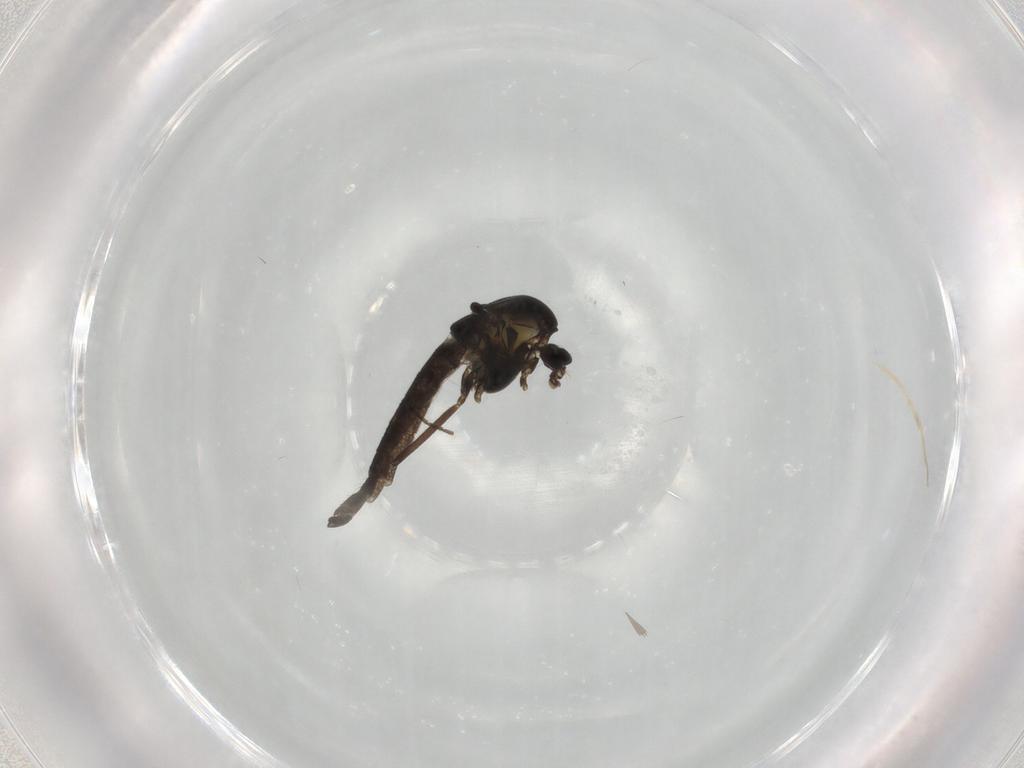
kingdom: Animalia
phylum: Arthropoda
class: Insecta
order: Diptera
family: Chironomidae
